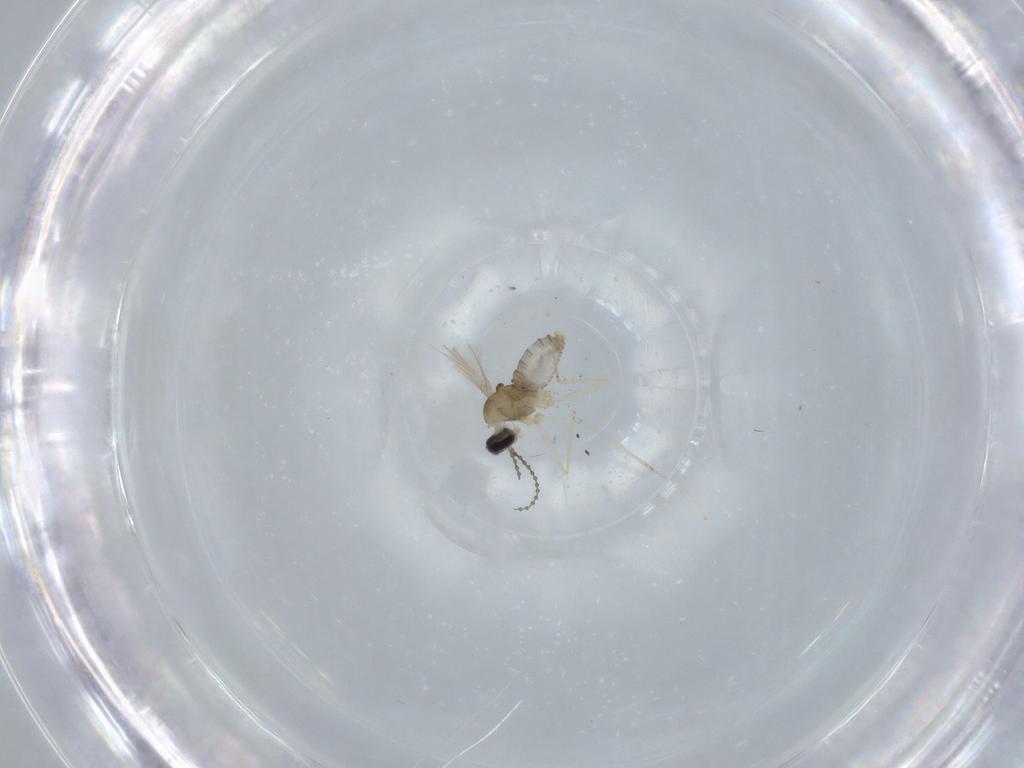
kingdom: Animalia
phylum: Arthropoda
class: Insecta
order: Diptera
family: Cecidomyiidae
